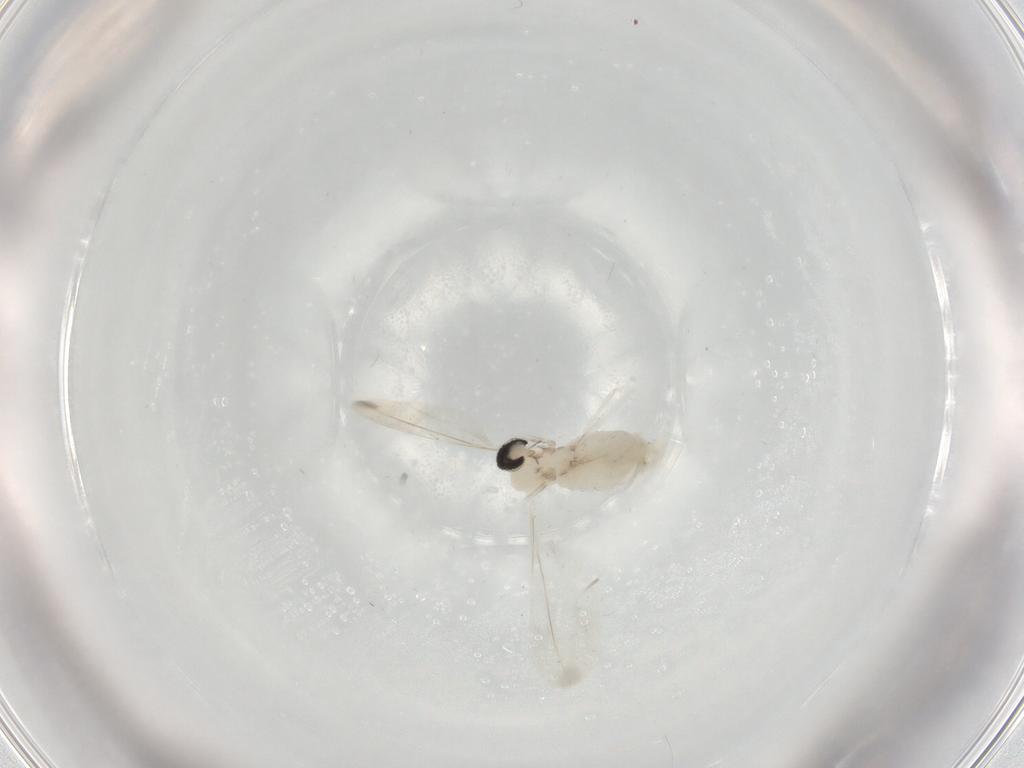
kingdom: Animalia
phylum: Arthropoda
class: Insecta
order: Diptera
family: Cecidomyiidae
